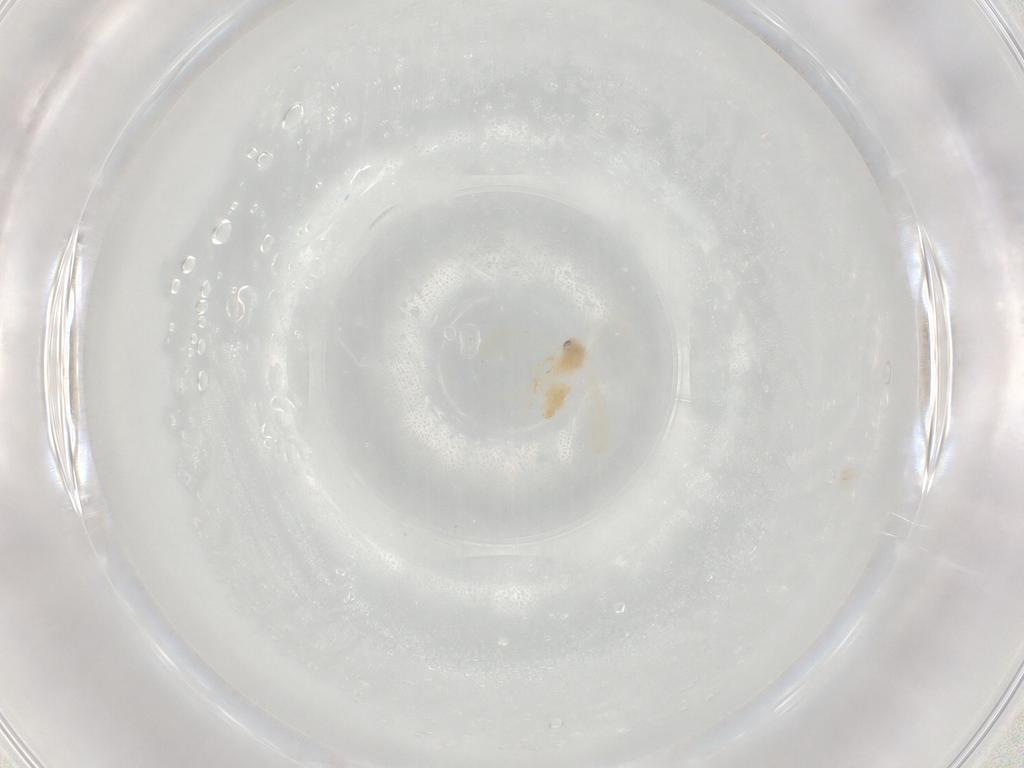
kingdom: Animalia
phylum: Arthropoda
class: Insecta
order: Hemiptera
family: Aleyrodidae
